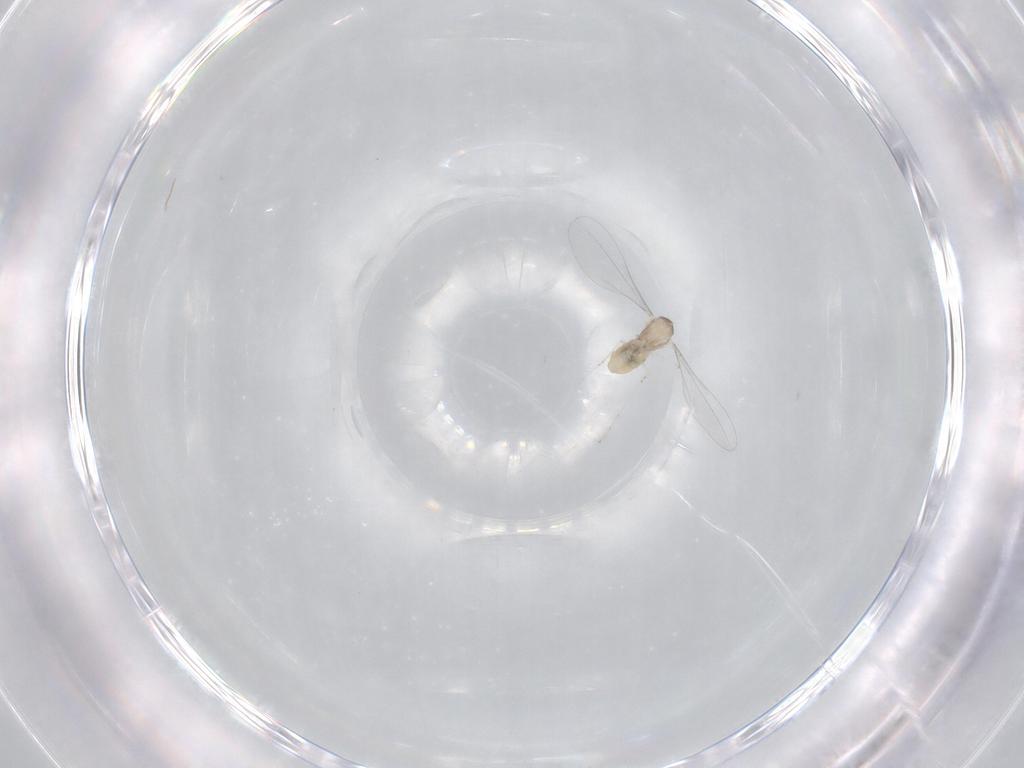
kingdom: Animalia
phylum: Arthropoda
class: Insecta
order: Diptera
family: Cecidomyiidae
